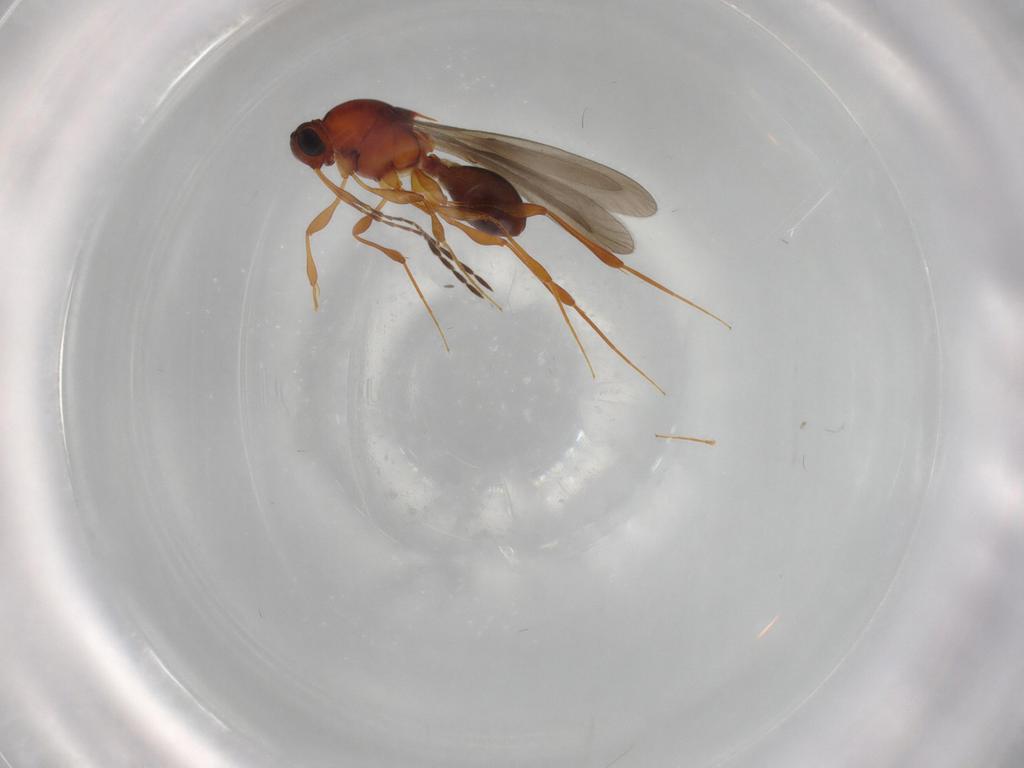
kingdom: Animalia
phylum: Arthropoda
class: Insecta
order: Hymenoptera
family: Platygastridae
